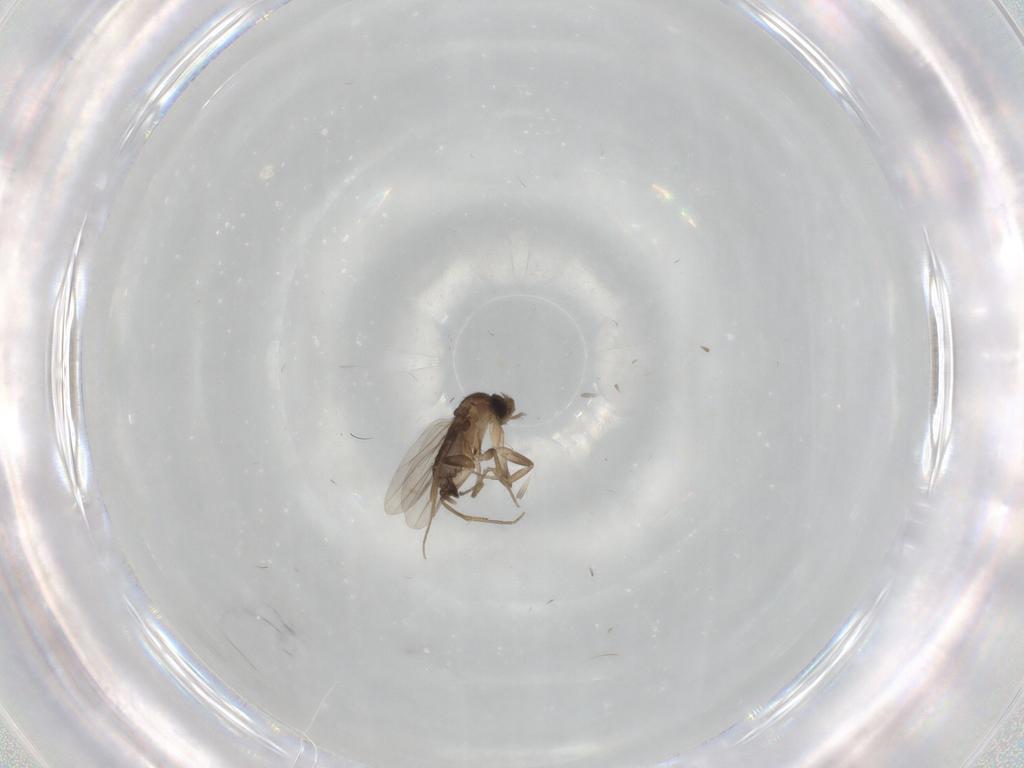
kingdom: Animalia
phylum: Arthropoda
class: Insecta
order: Diptera
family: Phoridae
